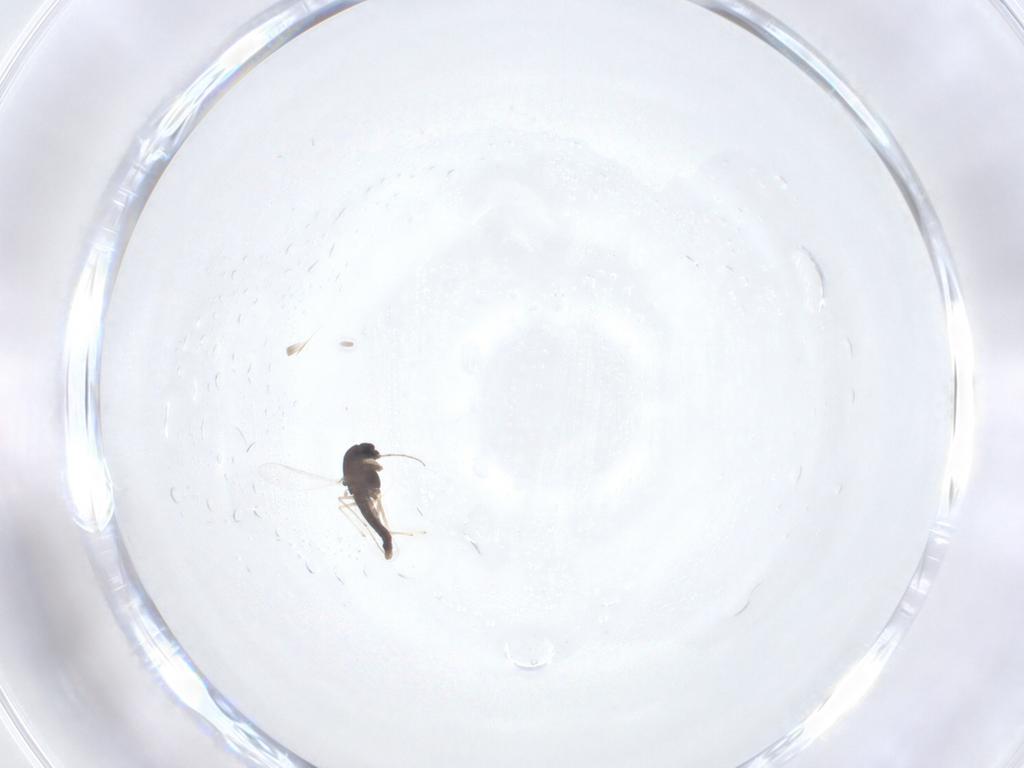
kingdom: Animalia
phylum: Arthropoda
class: Insecta
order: Diptera
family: Chironomidae
